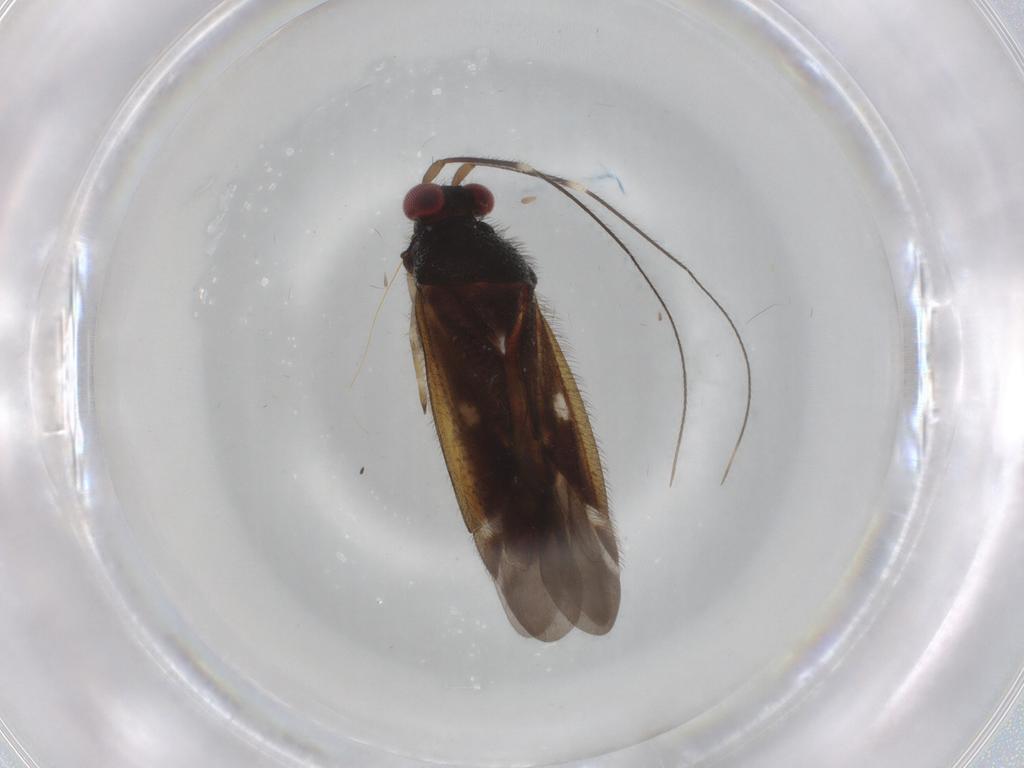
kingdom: Animalia
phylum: Arthropoda
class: Insecta
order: Hemiptera
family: Miridae
